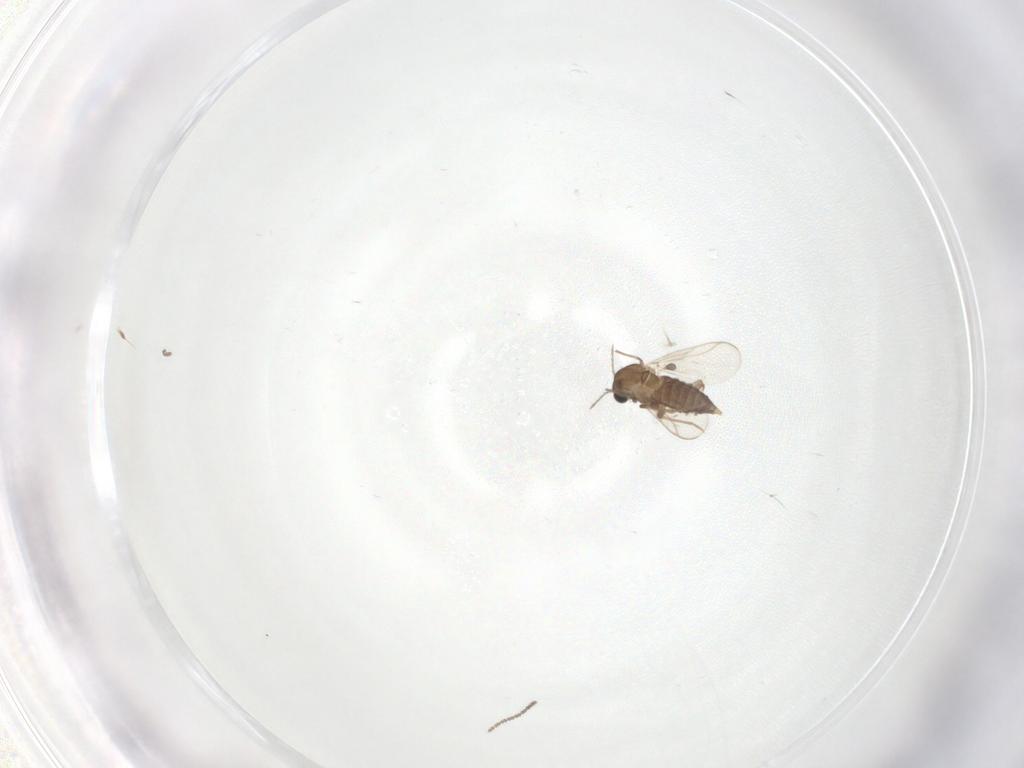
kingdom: Animalia
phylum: Arthropoda
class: Insecta
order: Diptera
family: Chironomidae
